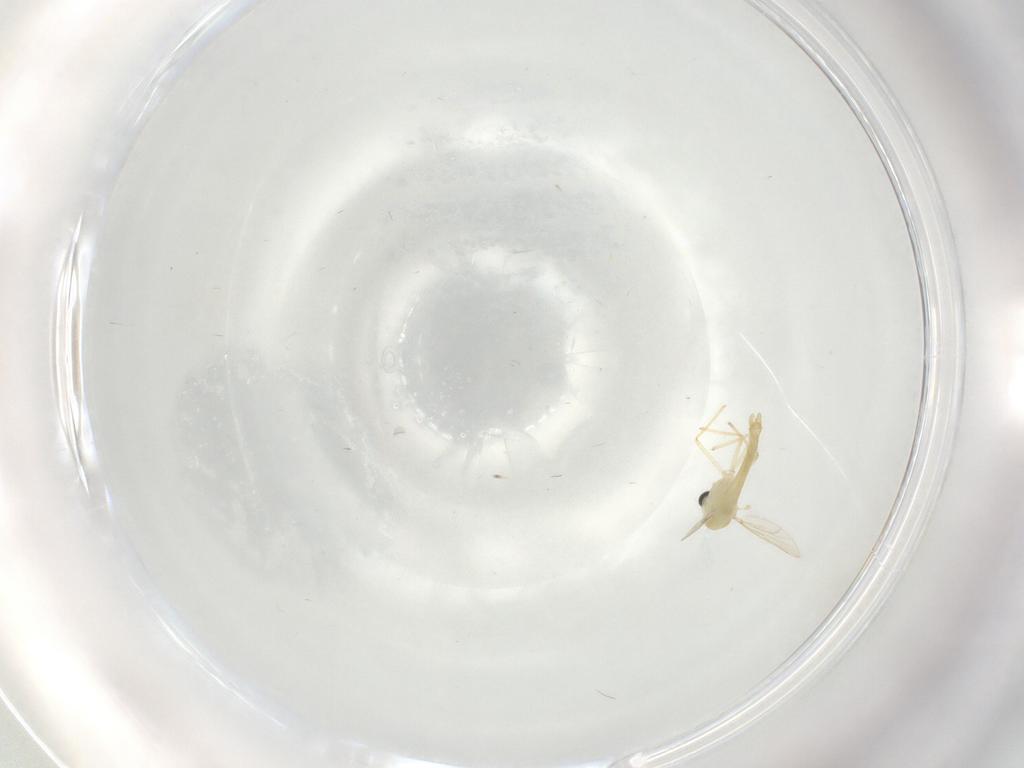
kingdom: Animalia
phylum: Arthropoda
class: Insecta
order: Diptera
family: Chironomidae
